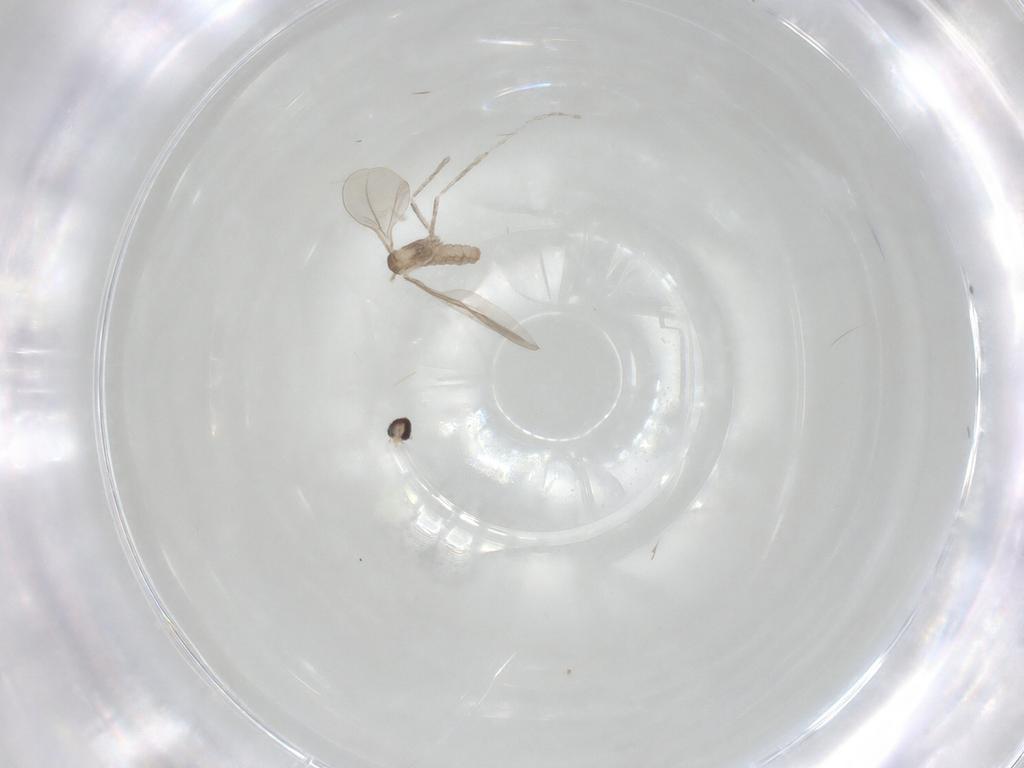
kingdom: Animalia
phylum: Arthropoda
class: Insecta
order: Diptera
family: Cecidomyiidae
